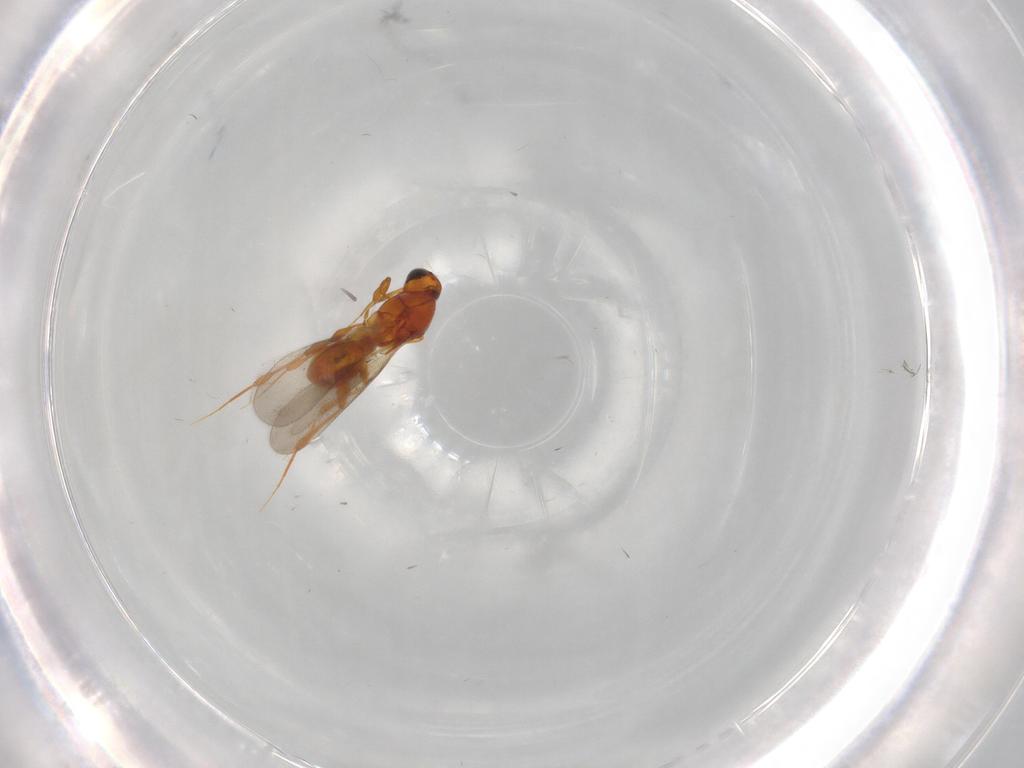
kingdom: Animalia
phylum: Arthropoda
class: Insecta
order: Hymenoptera
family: Platygastridae
